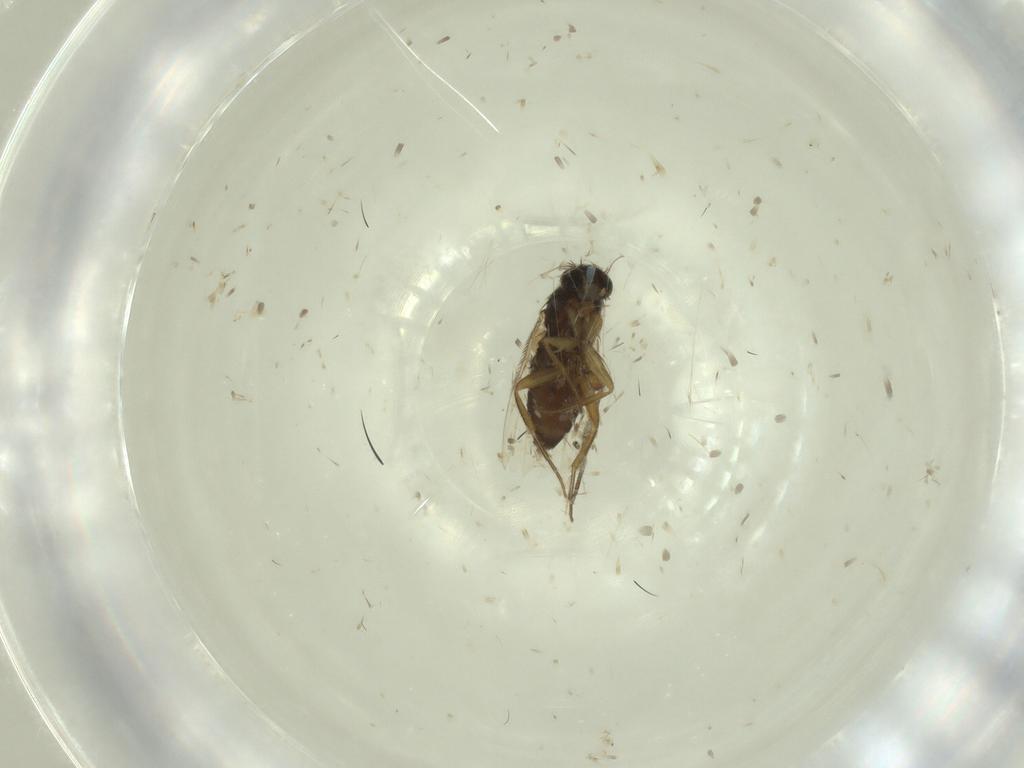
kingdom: Animalia
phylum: Arthropoda
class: Insecta
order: Diptera
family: Phoridae
